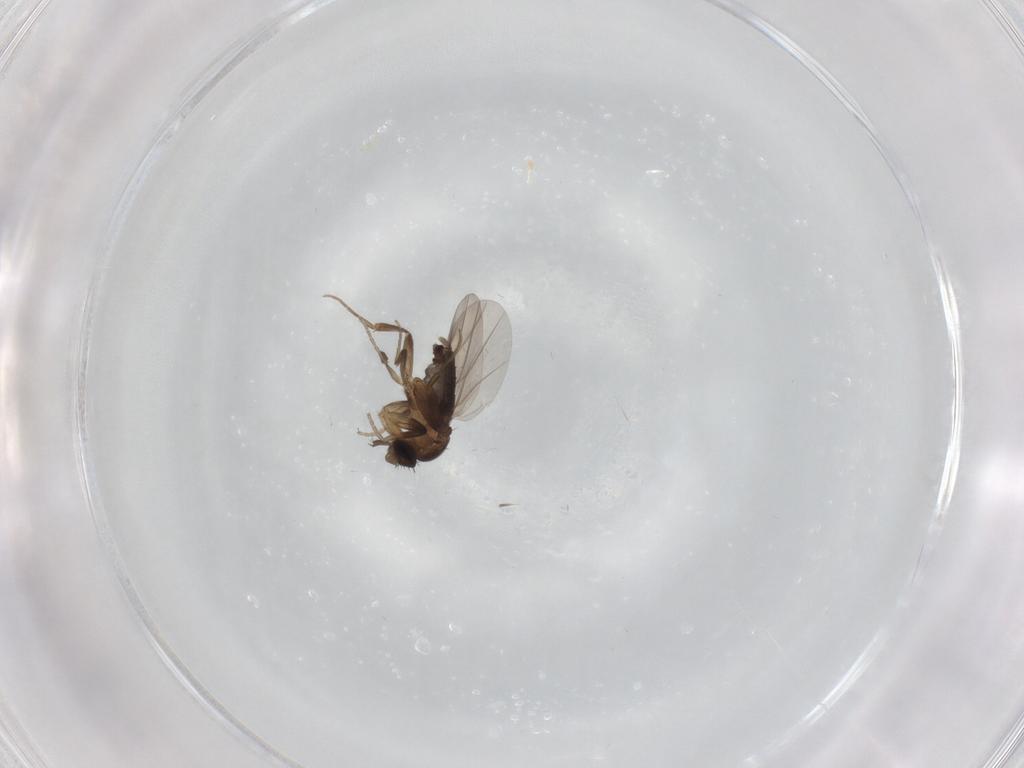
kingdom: Animalia
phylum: Arthropoda
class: Insecta
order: Diptera
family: Phoridae
